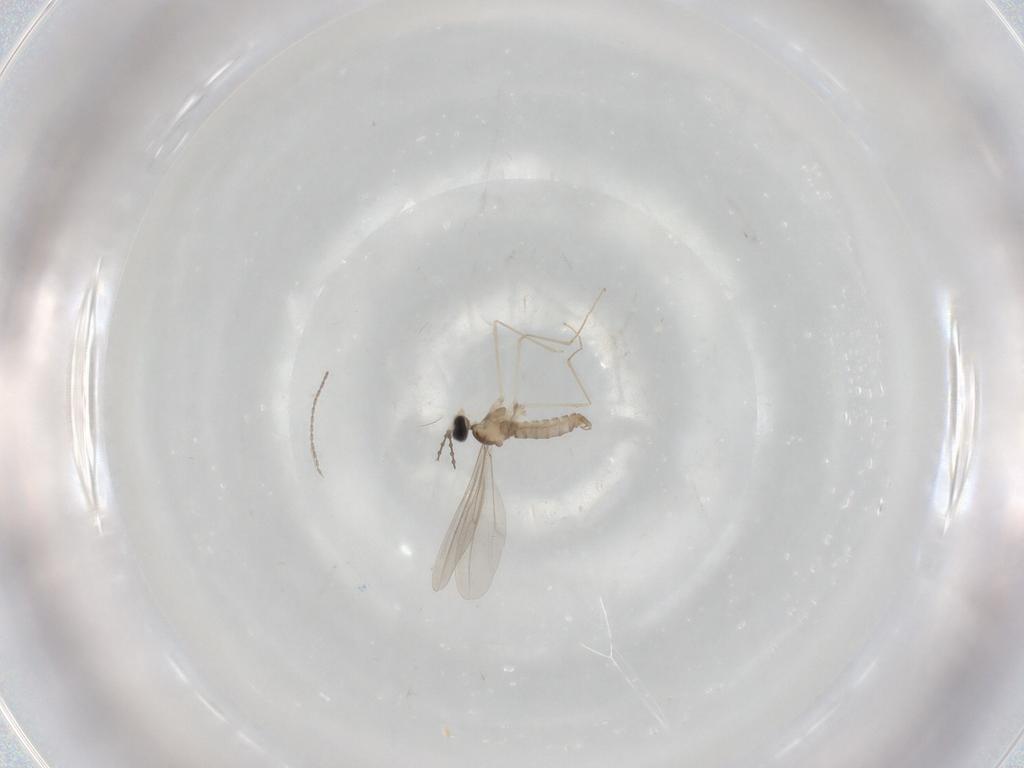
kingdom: Animalia
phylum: Arthropoda
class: Insecta
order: Diptera
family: Cecidomyiidae
